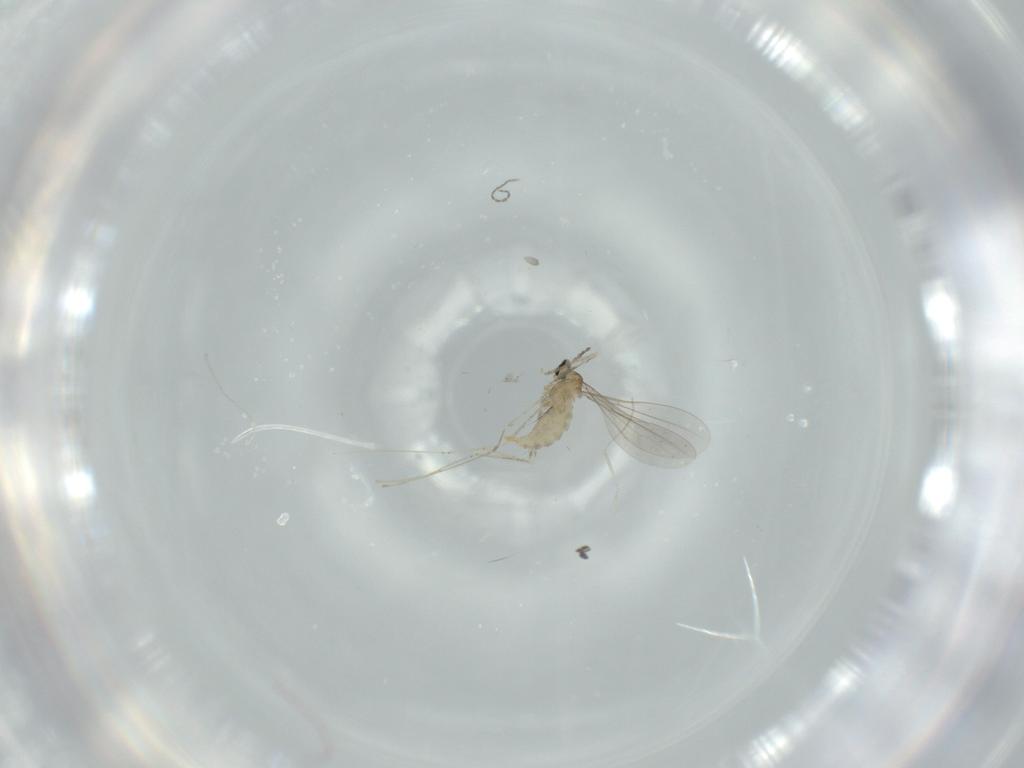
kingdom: Animalia
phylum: Arthropoda
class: Insecta
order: Diptera
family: Cecidomyiidae
